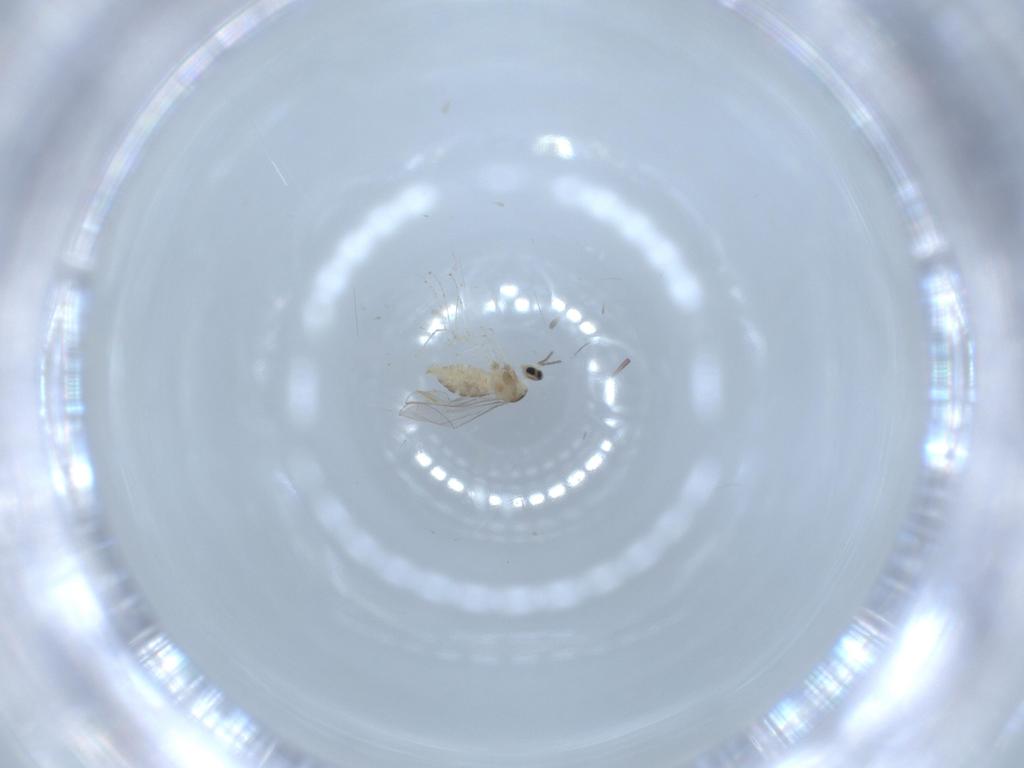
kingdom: Animalia
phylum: Arthropoda
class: Insecta
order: Diptera
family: Cecidomyiidae
